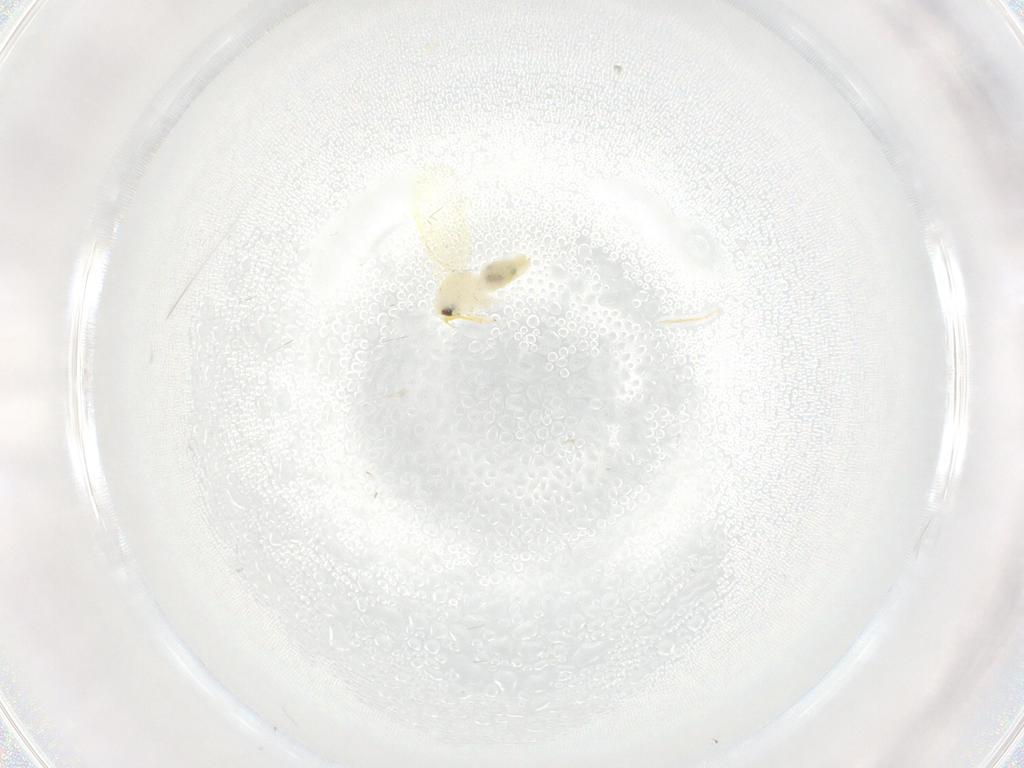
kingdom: Animalia
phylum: Arthropoda
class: Insecta
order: Hemiptera
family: Aleyrodidae
